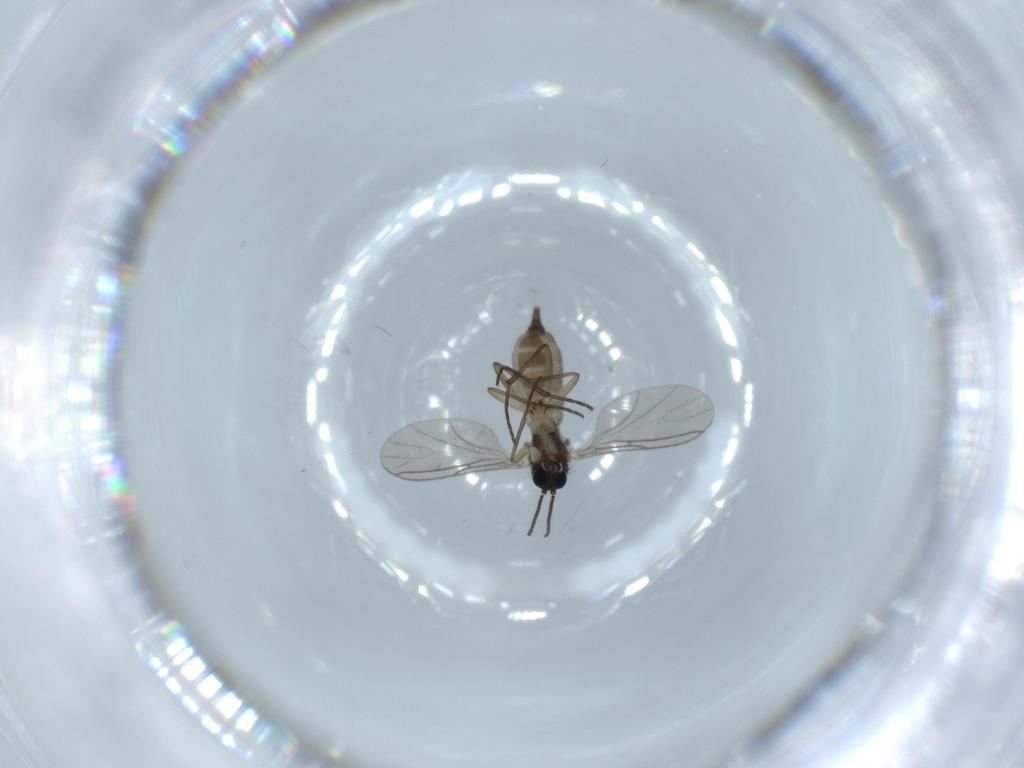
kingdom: Animalia
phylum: Arthropoda
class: Insecta
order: Diptera
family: Sciaridae
